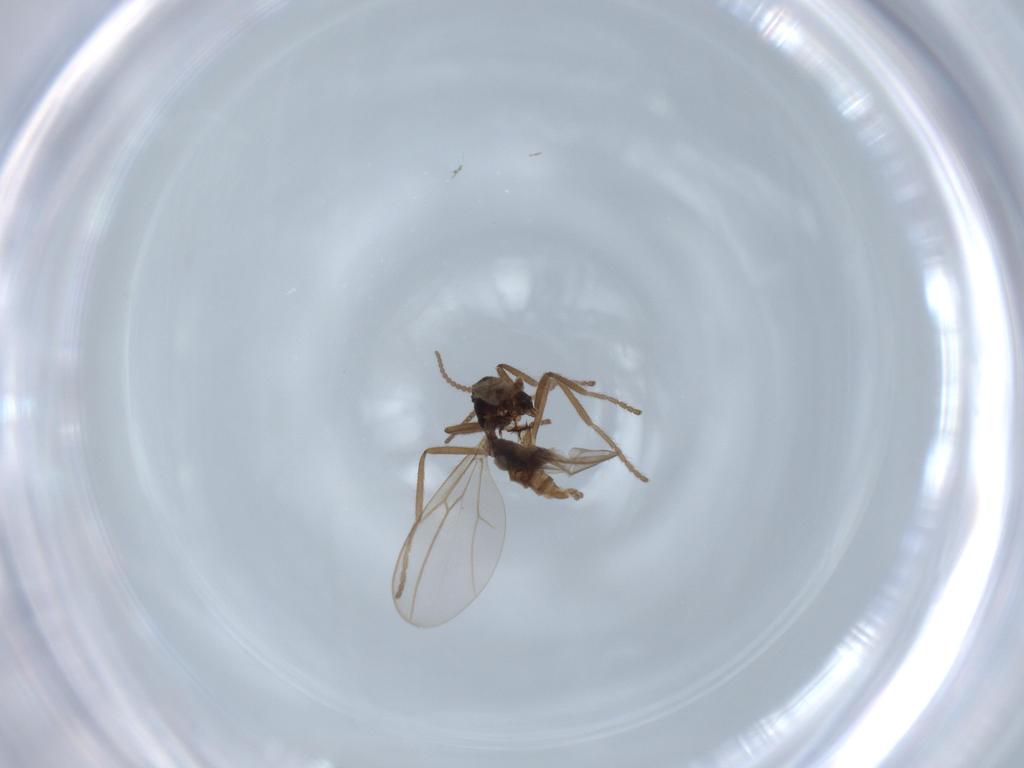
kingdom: Animalia
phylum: Arthropoda
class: Insecta
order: Diptera
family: Cecidomyiidae
